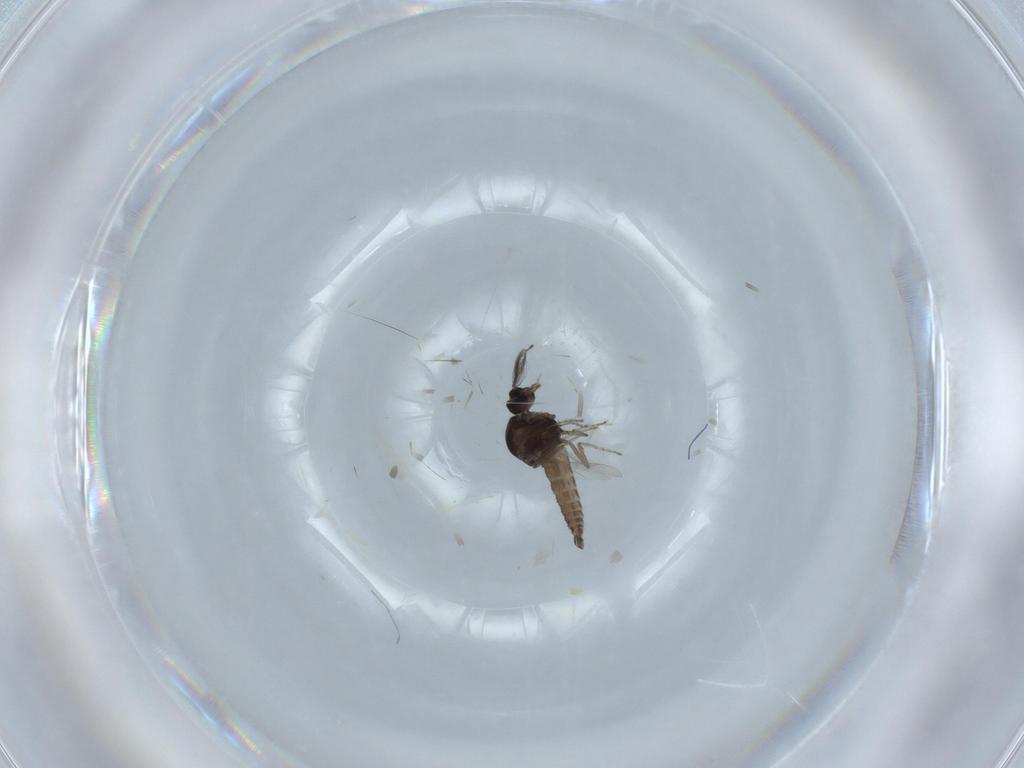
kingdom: Animalia
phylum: Arthropoda
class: Insecta
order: Diptera
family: Ceratopogonidae
